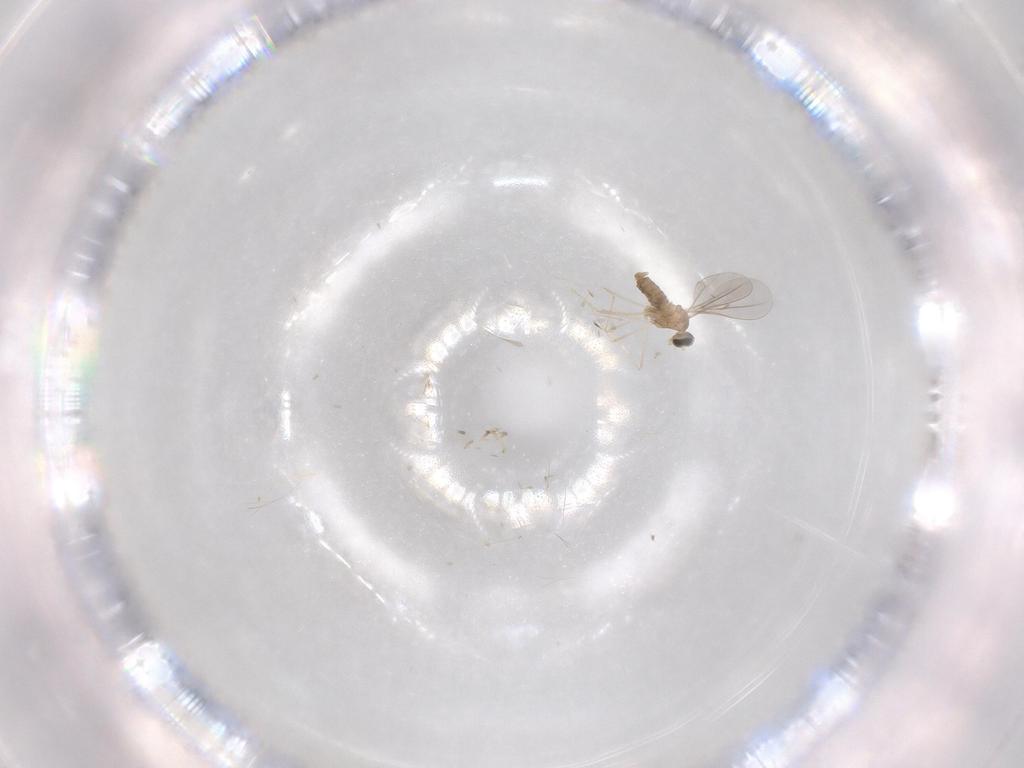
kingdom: Animalia
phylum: Arthropoda
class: Insecta
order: Diptera
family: Cecidomyiidae
